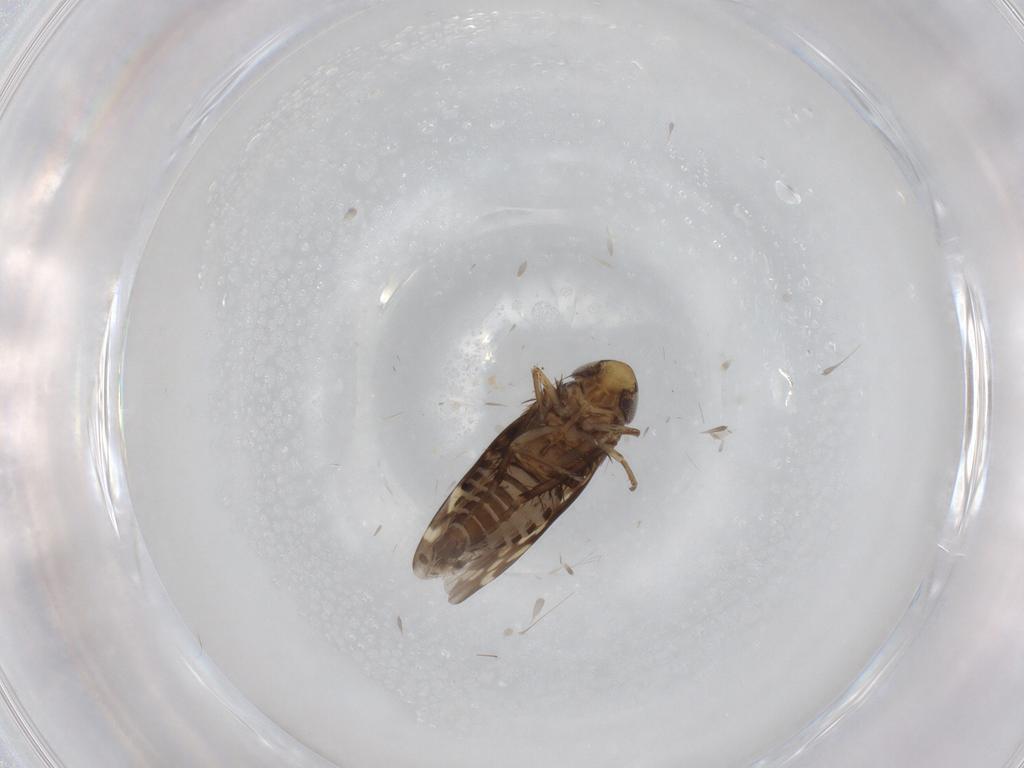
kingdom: Animalia
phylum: Arthropoda
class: Insecta
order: Hemiptera
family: Cicadellidae
